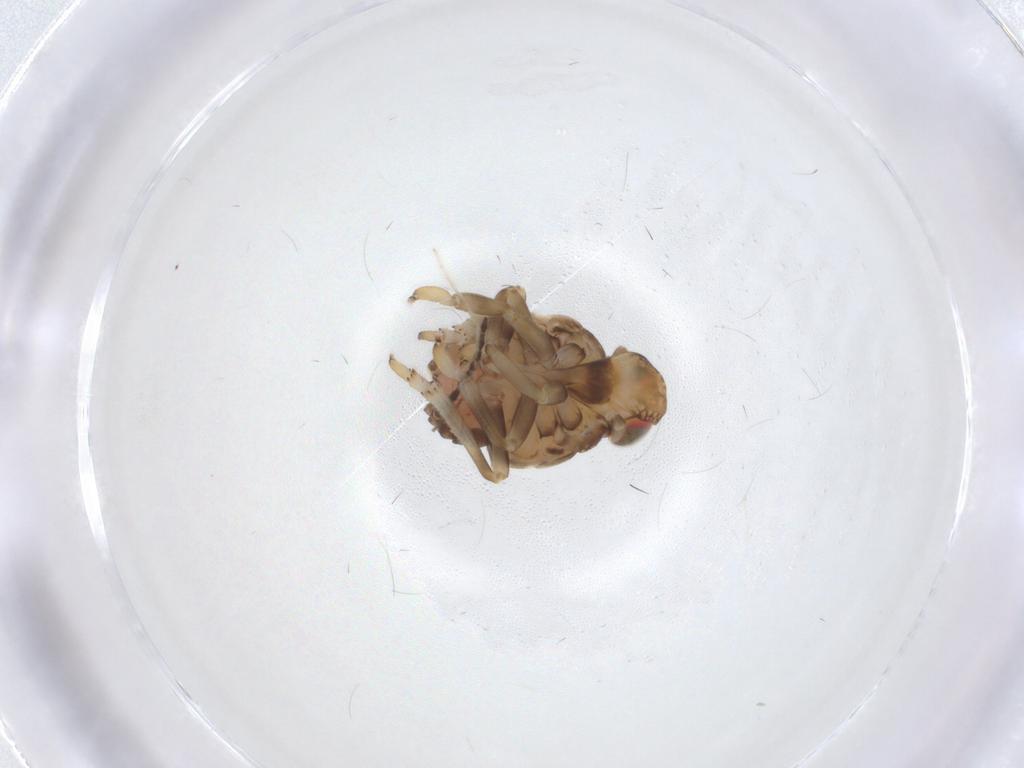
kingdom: Animalia
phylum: Arthropoda
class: Insecta
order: Hemiptera
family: Issidae
